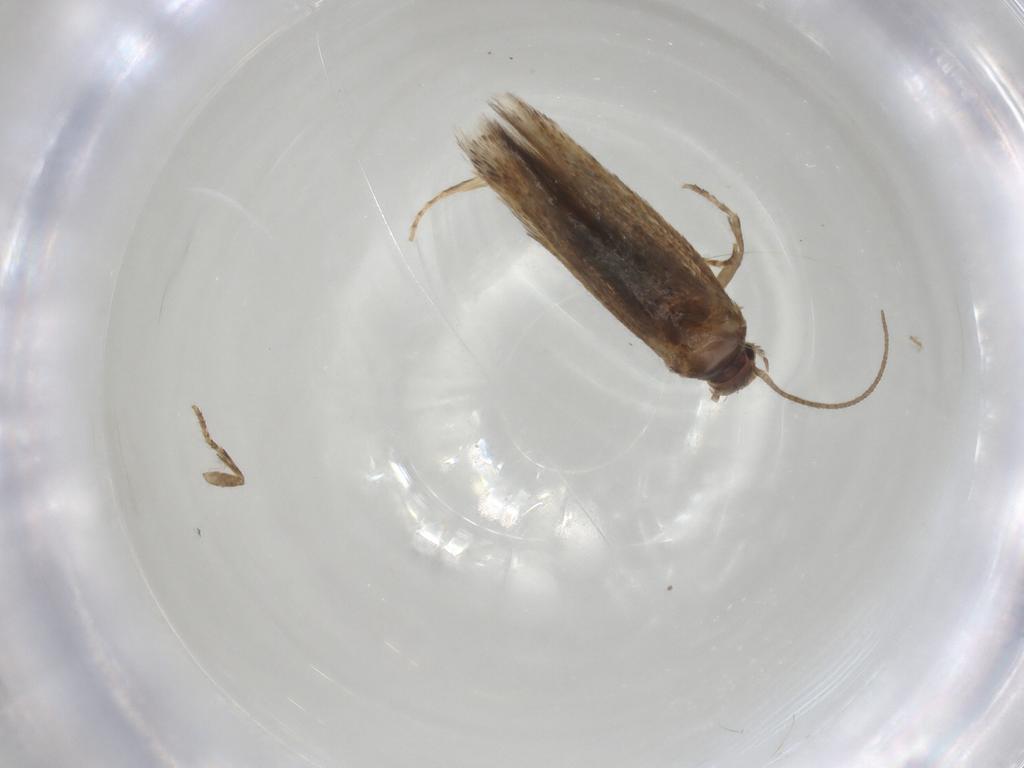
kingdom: Animalia
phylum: Arthropoda
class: Insecta
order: Lepidoptera
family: Elachistidae
